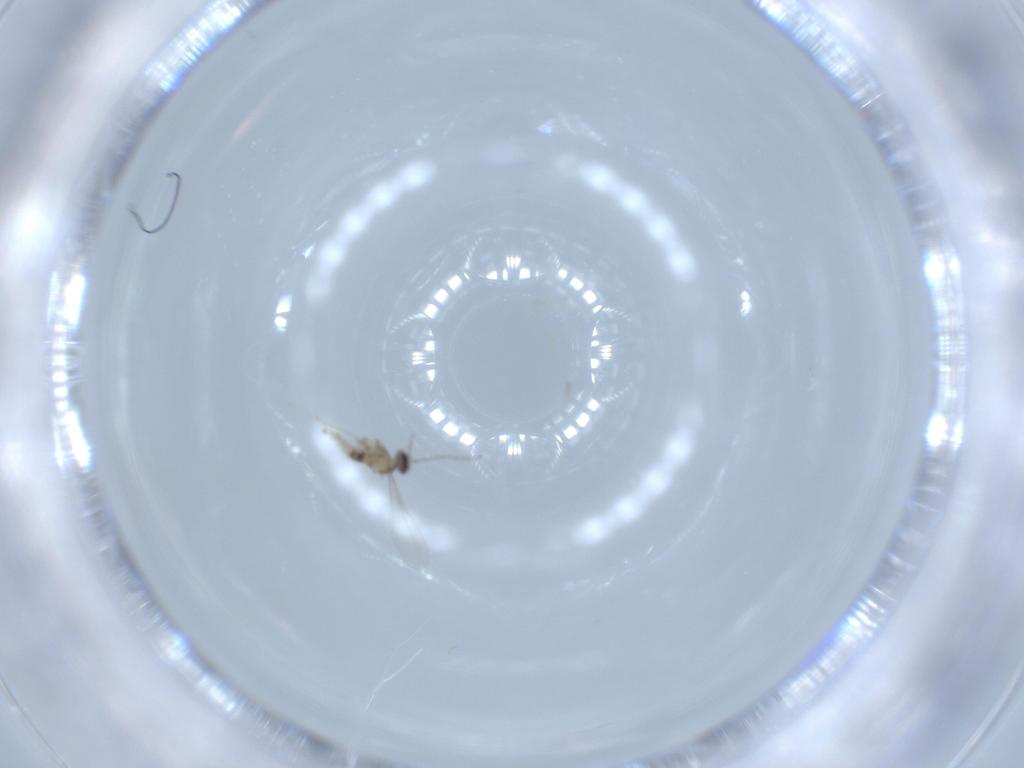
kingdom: Animalia
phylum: Arthropoda
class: Insecta
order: Diptera
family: Cecidomyiidae
